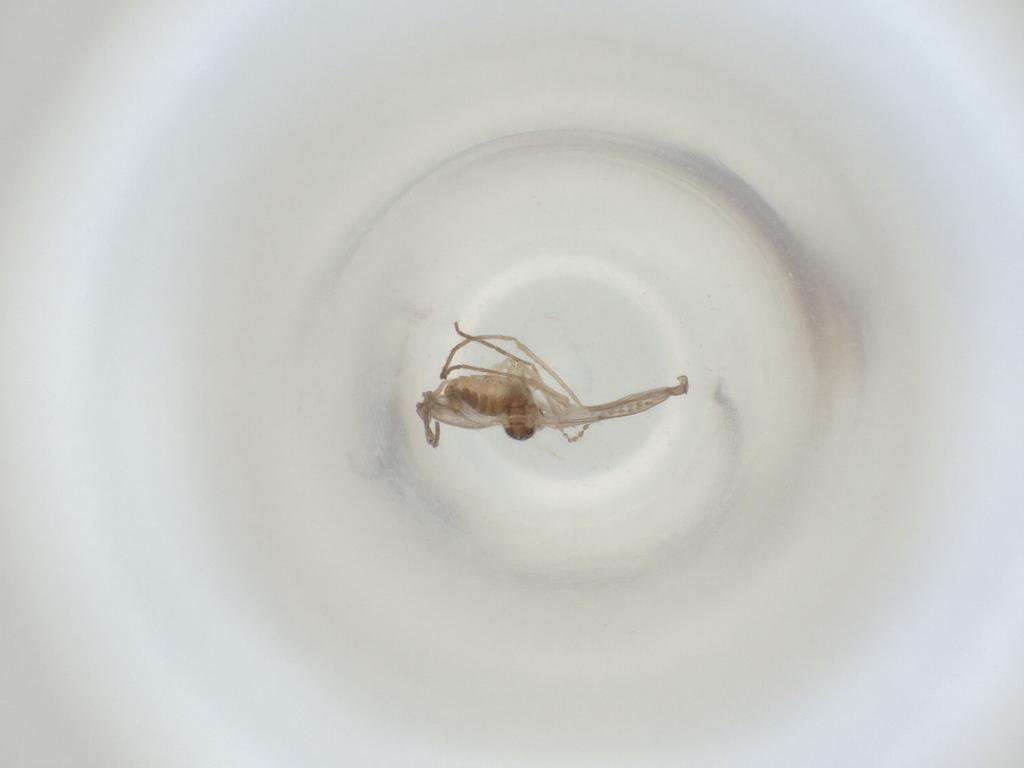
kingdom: Animalia
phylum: Arthropoda
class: Insecta
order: Diptera
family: Cecidomyiidae
